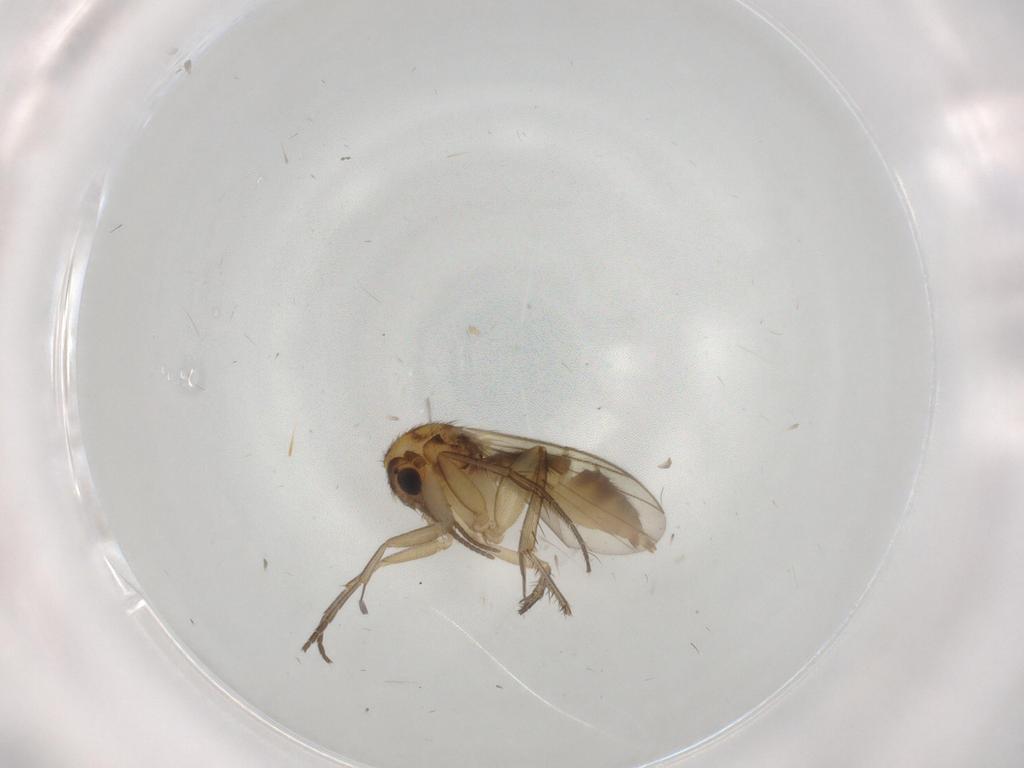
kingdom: Animalia
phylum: Arthropoda
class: Insecta
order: Diptera
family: Mycetophilidae
